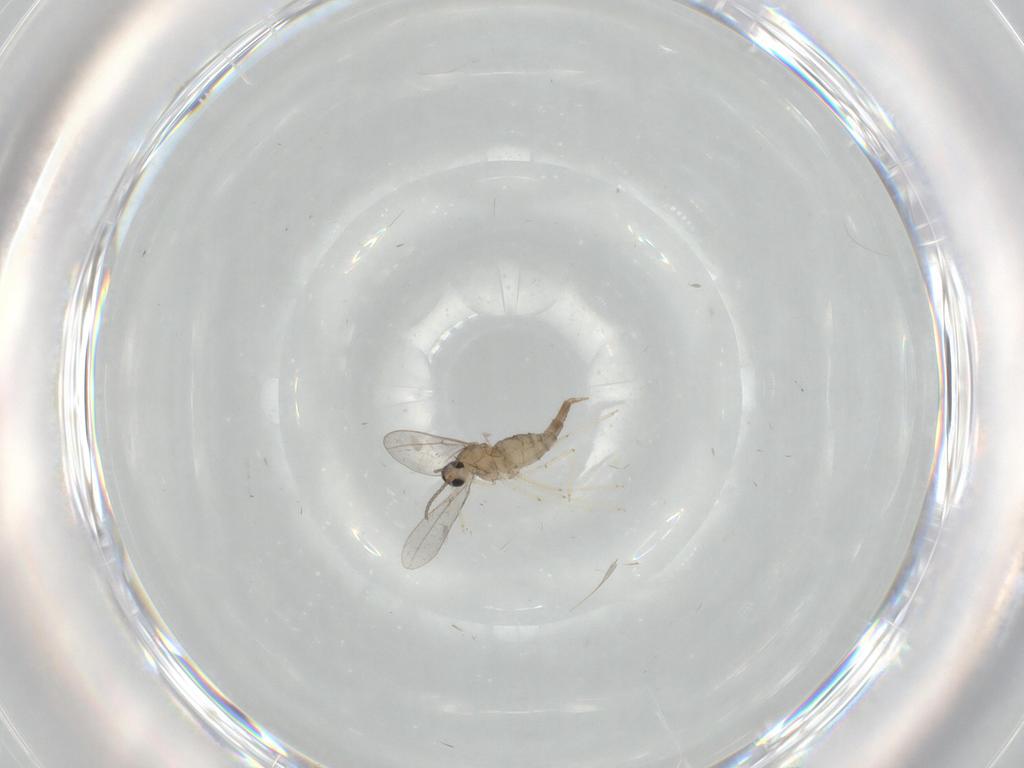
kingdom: Animalia
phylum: Arthropoda
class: Insecta
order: Diptera
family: Cecidomyiidae
